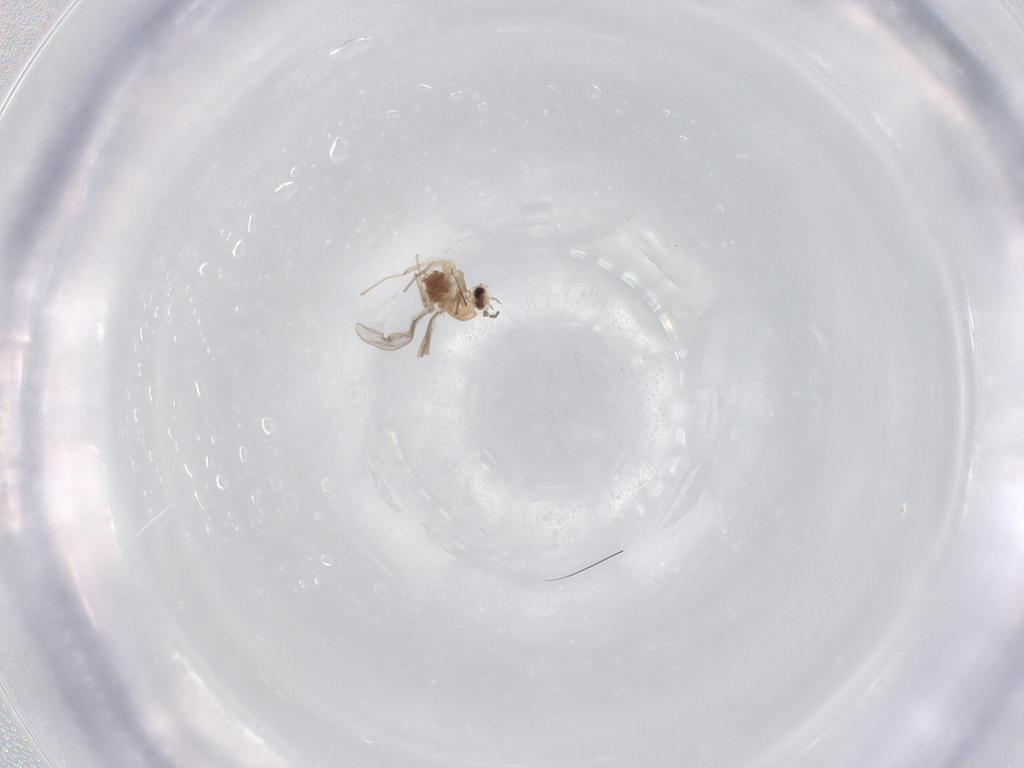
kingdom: Animalia
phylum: Arthropoda
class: Insecta
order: Diptera
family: Chironomidae
